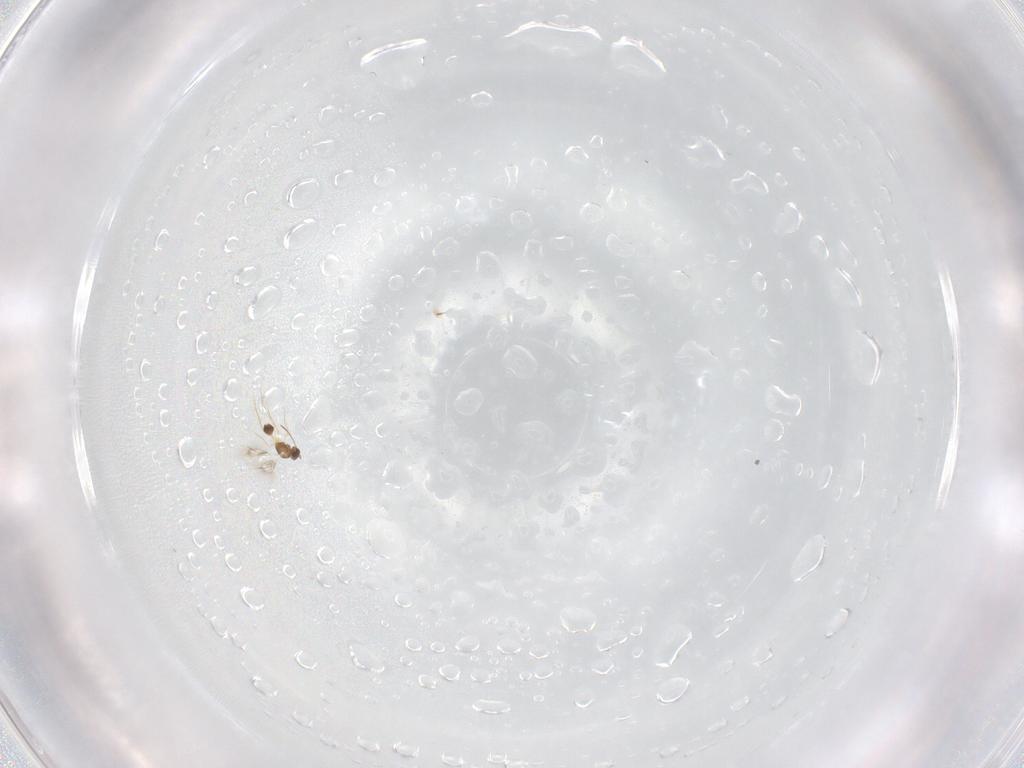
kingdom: Animalia
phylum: Arthropoda
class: Insecta
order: Hymenoptera
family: Mymarommatidae
